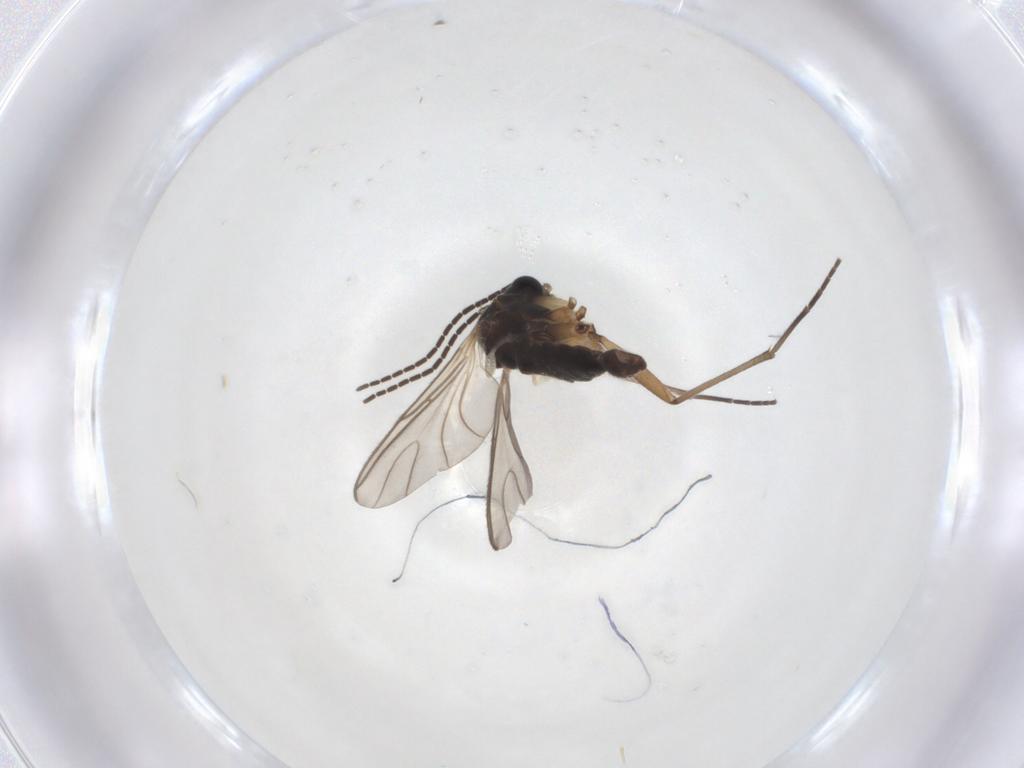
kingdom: Animalia
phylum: Arthropoda
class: Insecta
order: Diptera
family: Sciaridae
